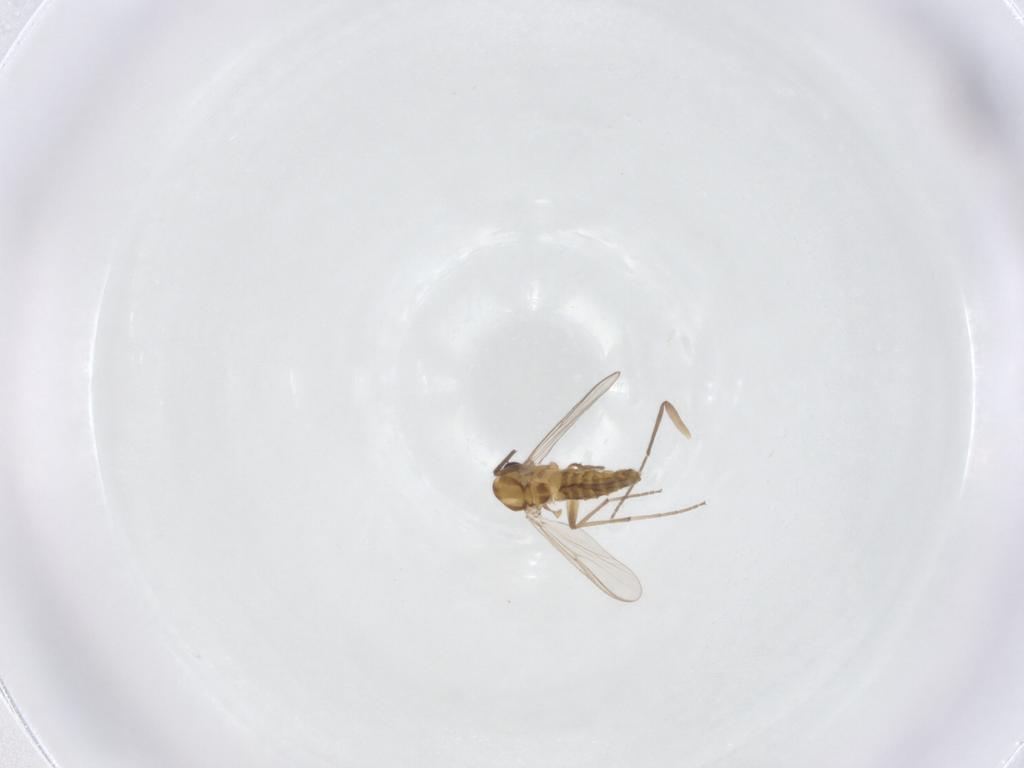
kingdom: Animalia
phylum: Arthropoda
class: Insecta
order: Diptera
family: Chironomidae
